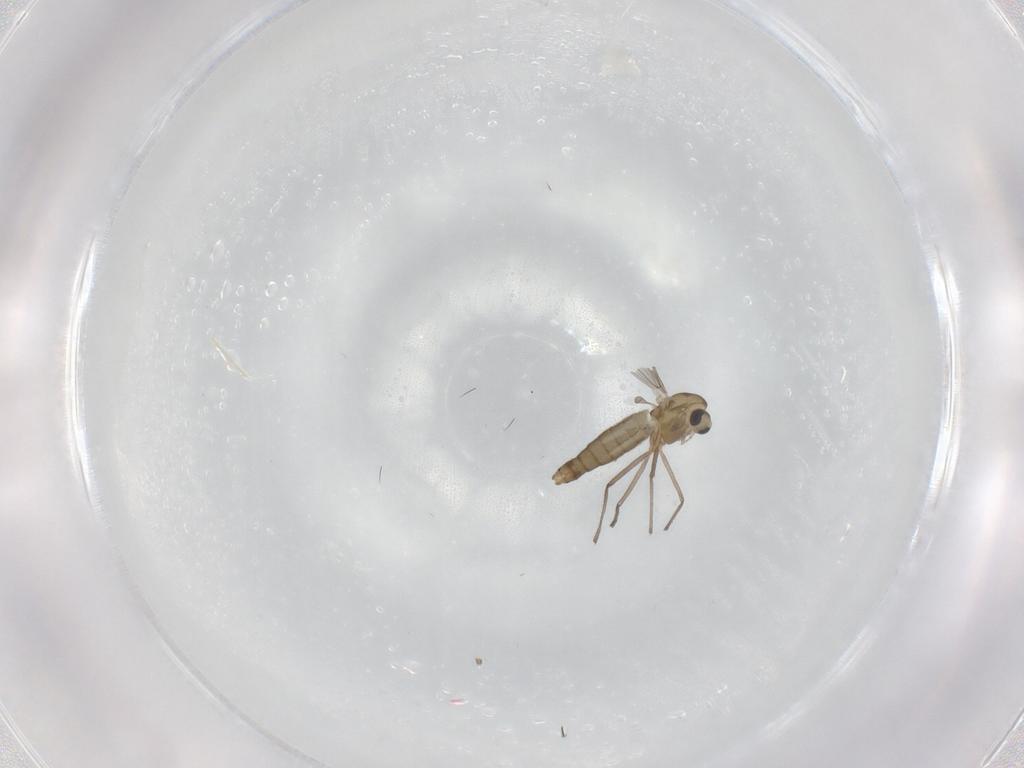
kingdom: Animalia
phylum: Arthropoda
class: Insecta
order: Diptera
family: Chironomidae
